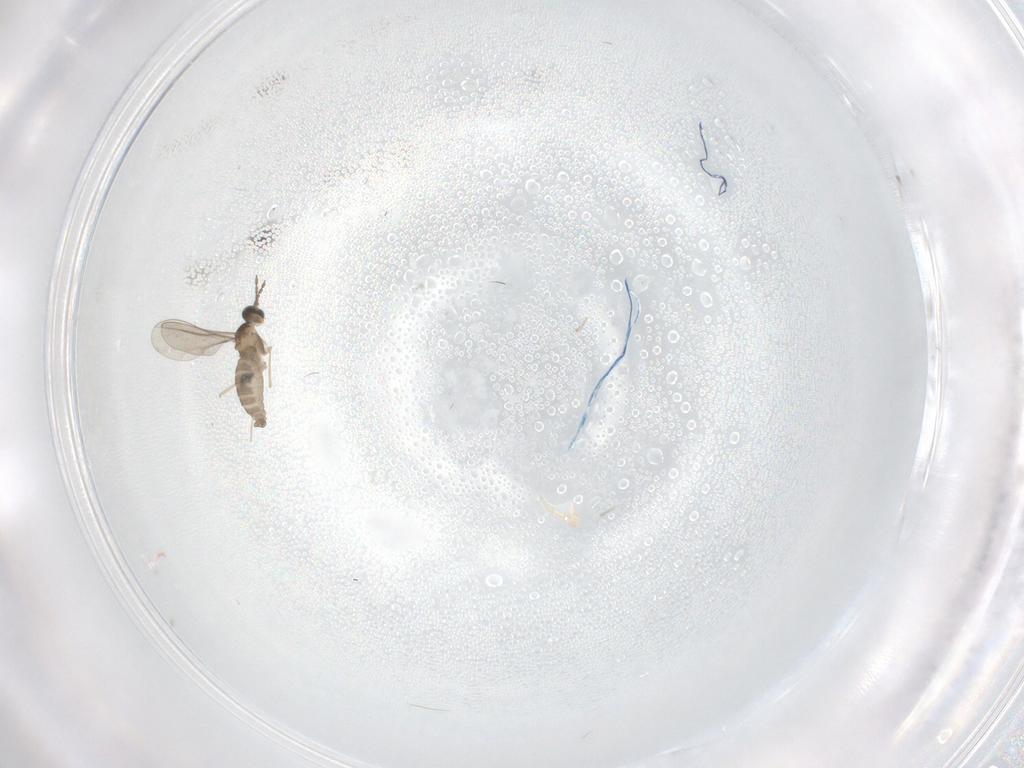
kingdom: Animalia
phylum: Arthropoda
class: Insecta
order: Diptera
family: Tabanidae
